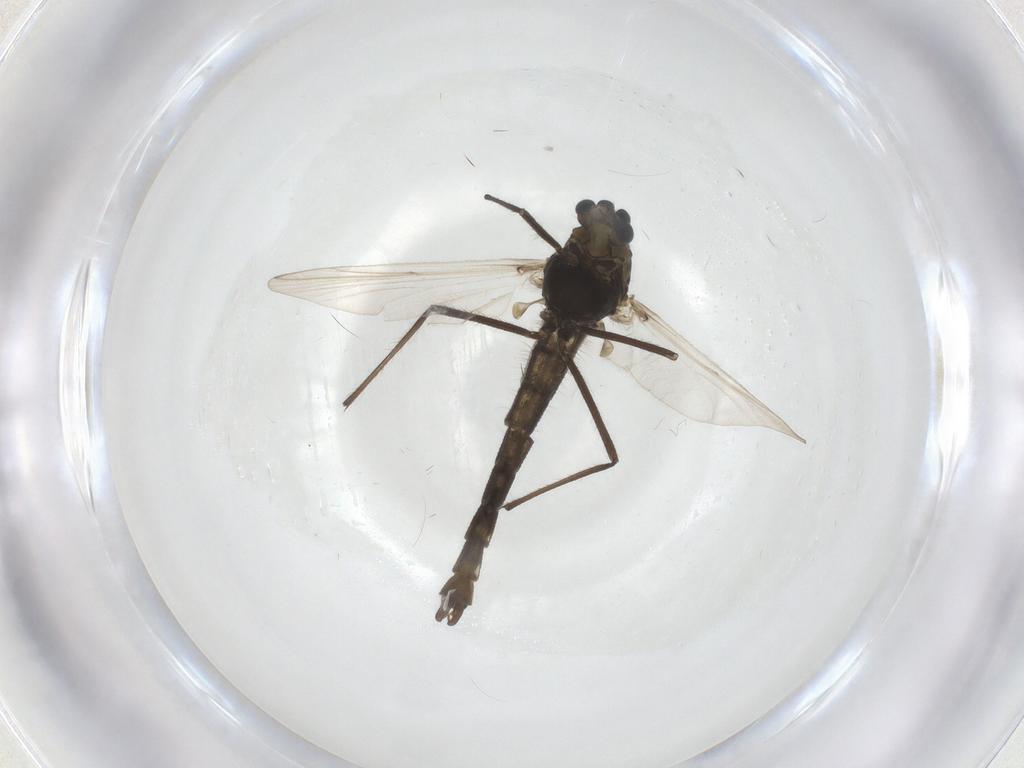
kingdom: Animalia
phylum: Arthropoda
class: Insecta
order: Diptera
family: Chironomidae
